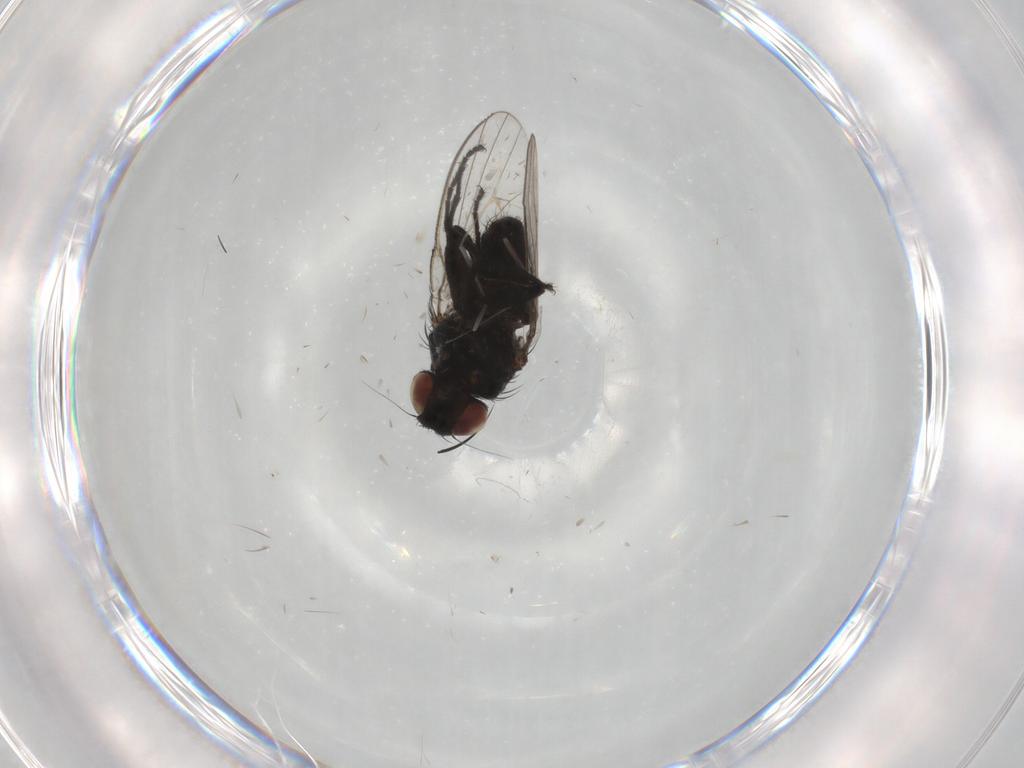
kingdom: Animalia
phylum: Arthropoda
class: Insecta
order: Diptera
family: Milichiidae
